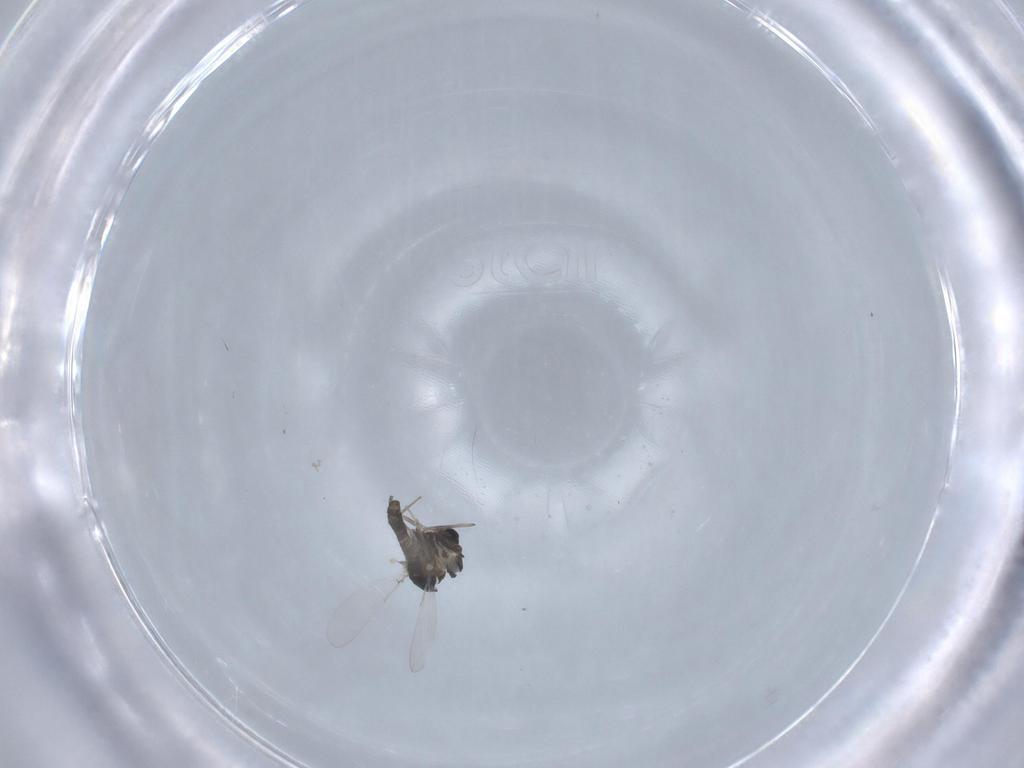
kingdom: Animalia
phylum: Arthropoda
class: Insecta
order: Diptera
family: Chironomidae
